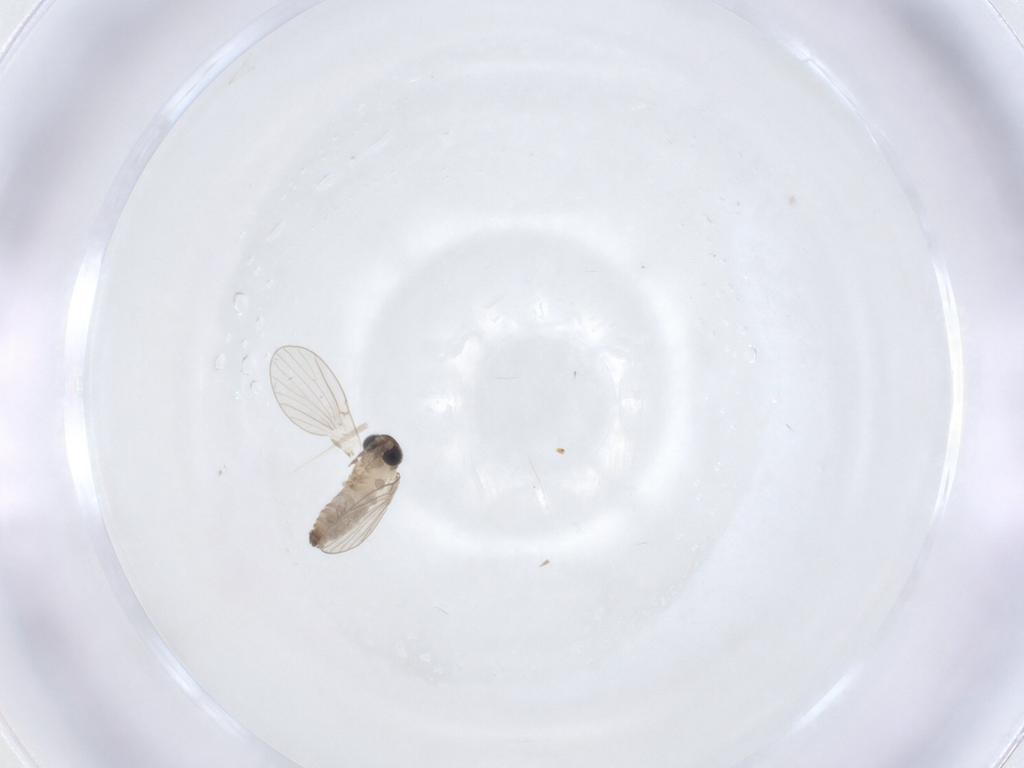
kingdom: Animalia
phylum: Arthropoda
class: Insecta
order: Diptera
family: Psychodidae
